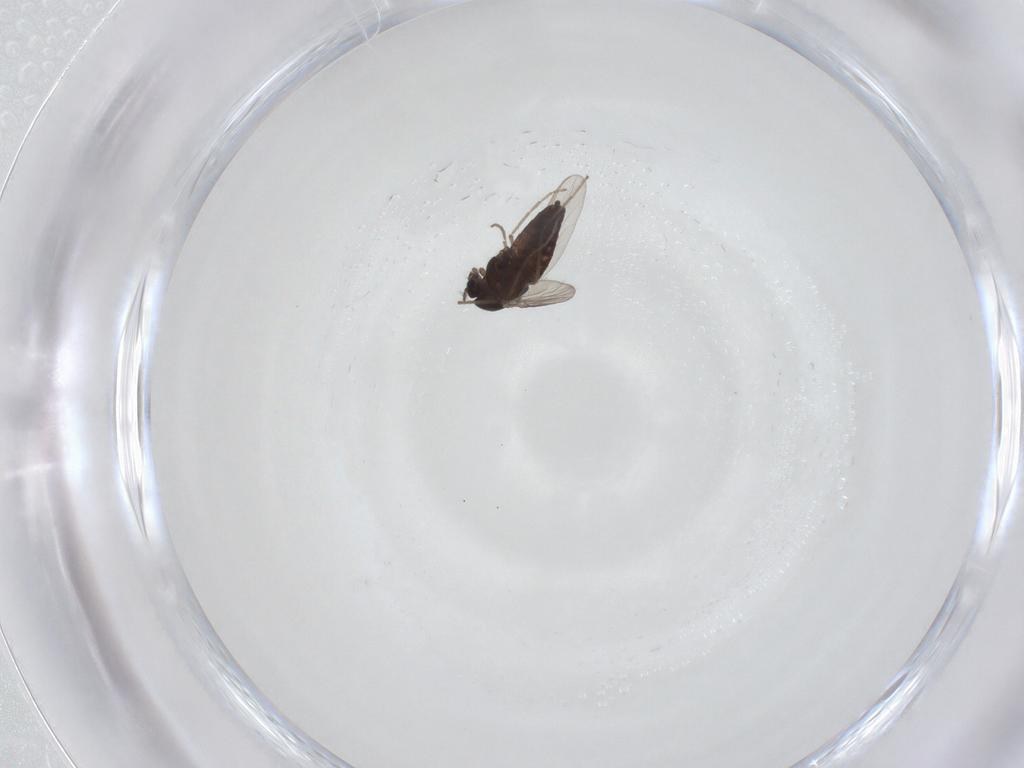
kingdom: Animalia
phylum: Arthropoda
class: Insecta
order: Diptera
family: Chironomidae
